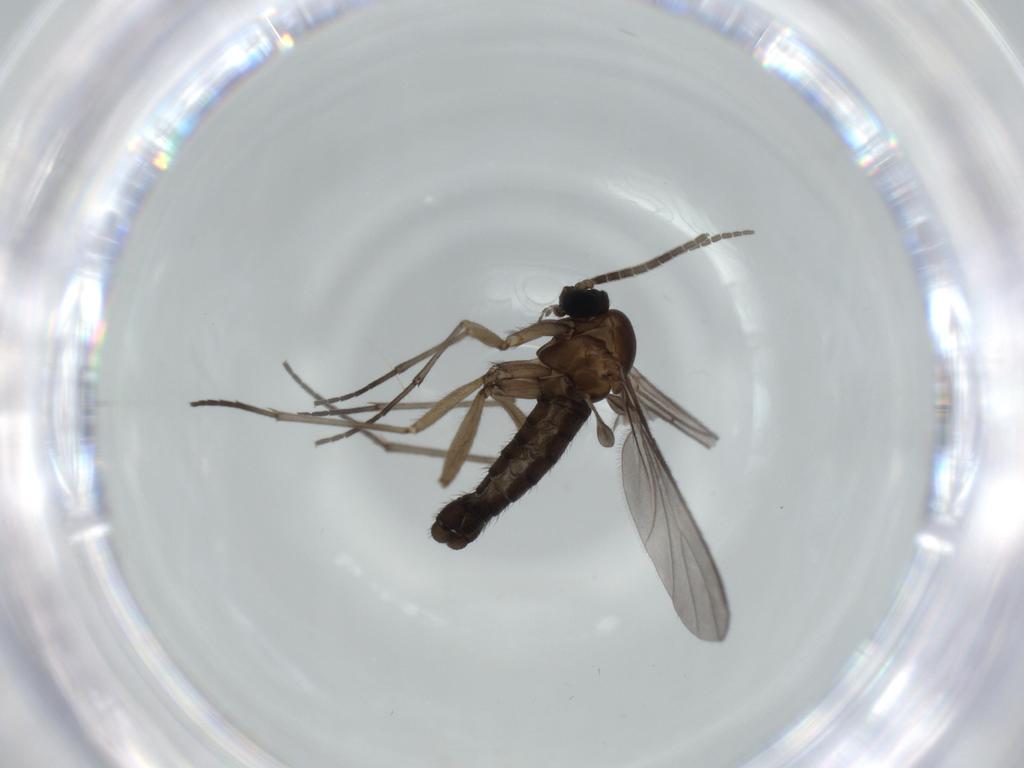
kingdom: Animalia
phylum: Arthropoda
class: Insecta
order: Diptera
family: Sciaridae
